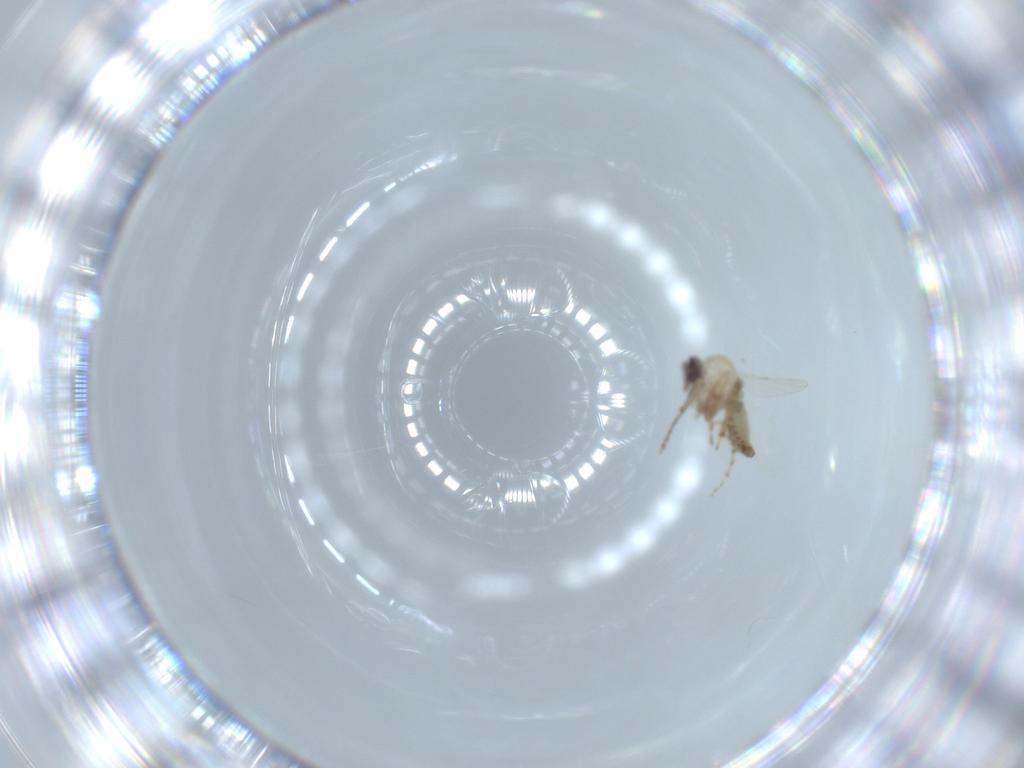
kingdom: Animalia
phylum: Arthropoda
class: Insecta
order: Diptera
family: Ceratopogonidae
